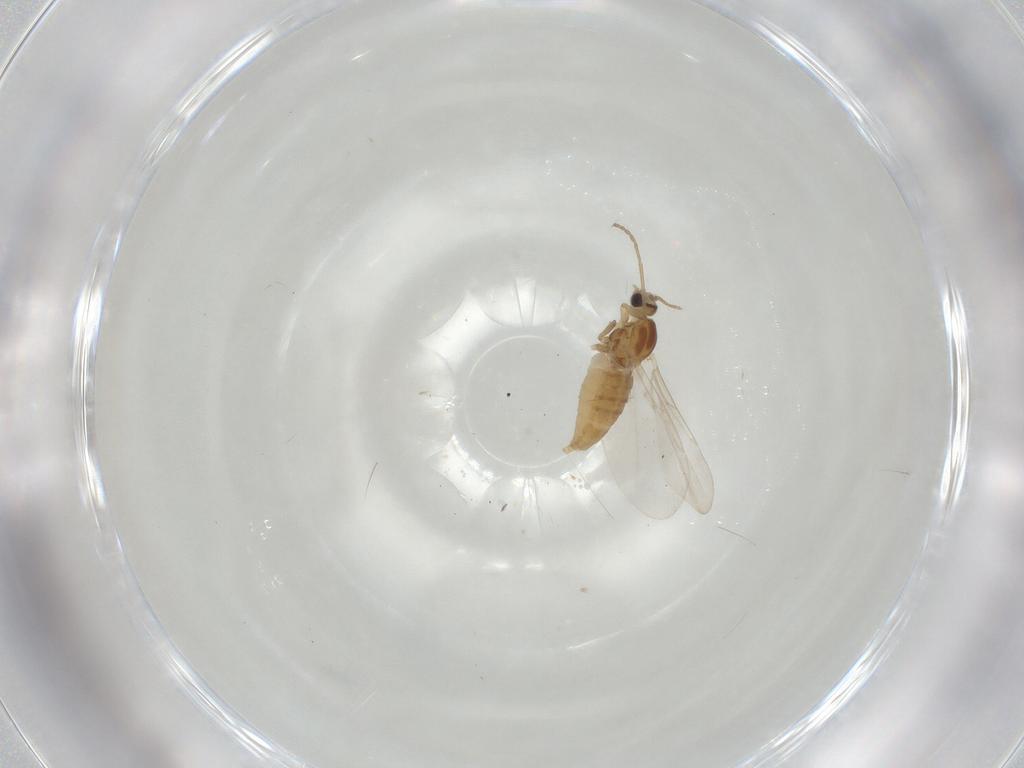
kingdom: Animalia
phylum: Arthropoda
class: Insecta
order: Diptera
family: Cecidomyiidae
